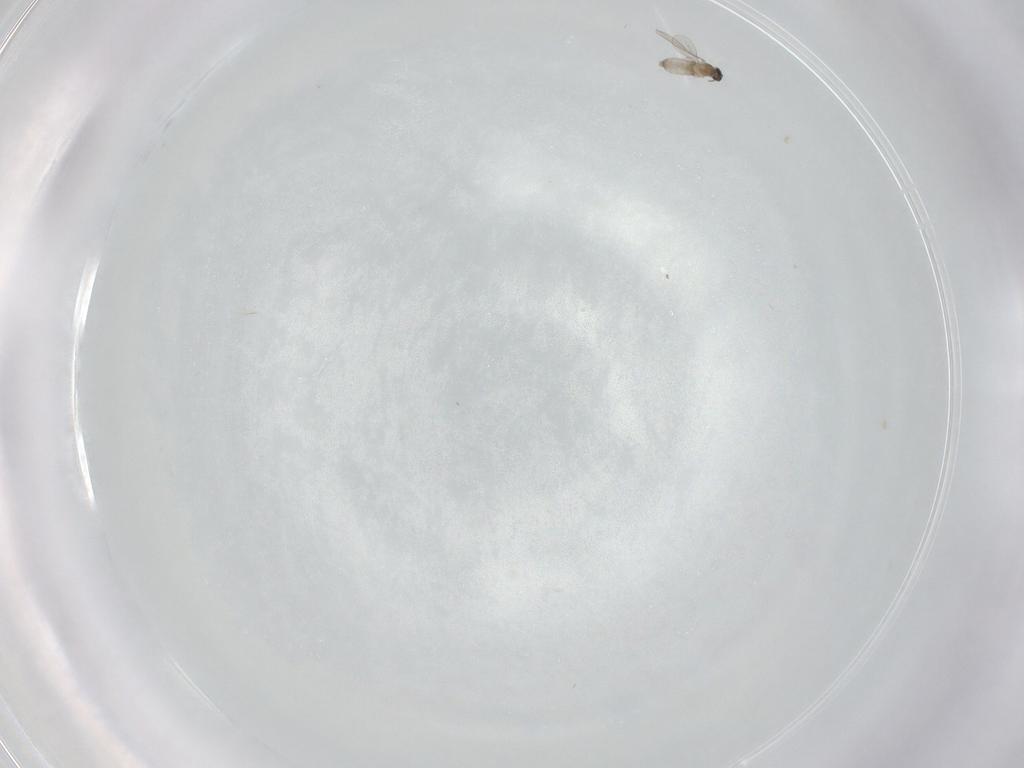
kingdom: Animalia
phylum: Arthropoda
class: Insecta
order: Diptera
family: Cecidomyiidae
